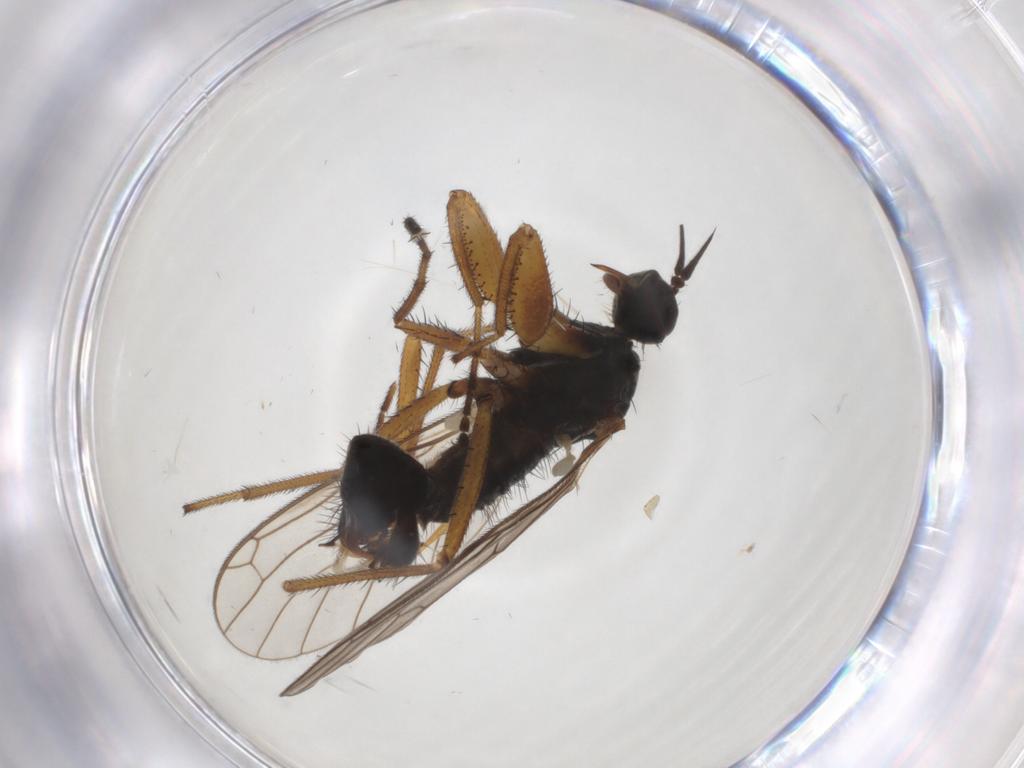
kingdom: Animalia
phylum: Arthropoda
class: Insecta
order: Diptera
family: Empididae
